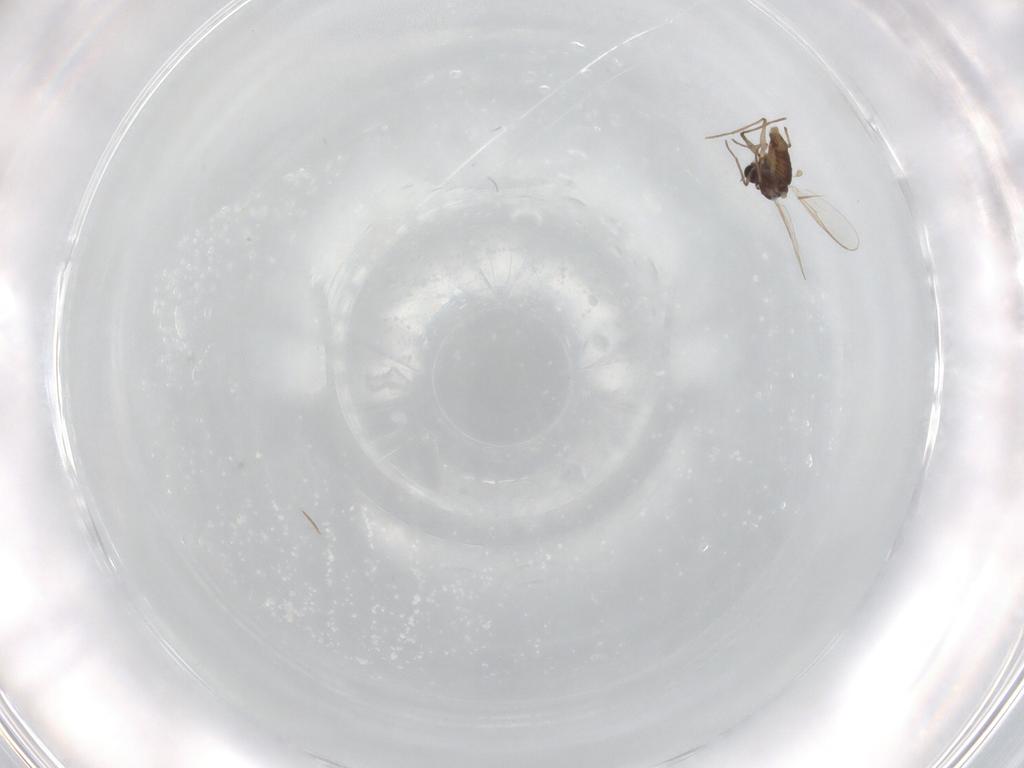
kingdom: Animalia
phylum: Arthropoda
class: Insecta
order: Diptera
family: Chironomidae
